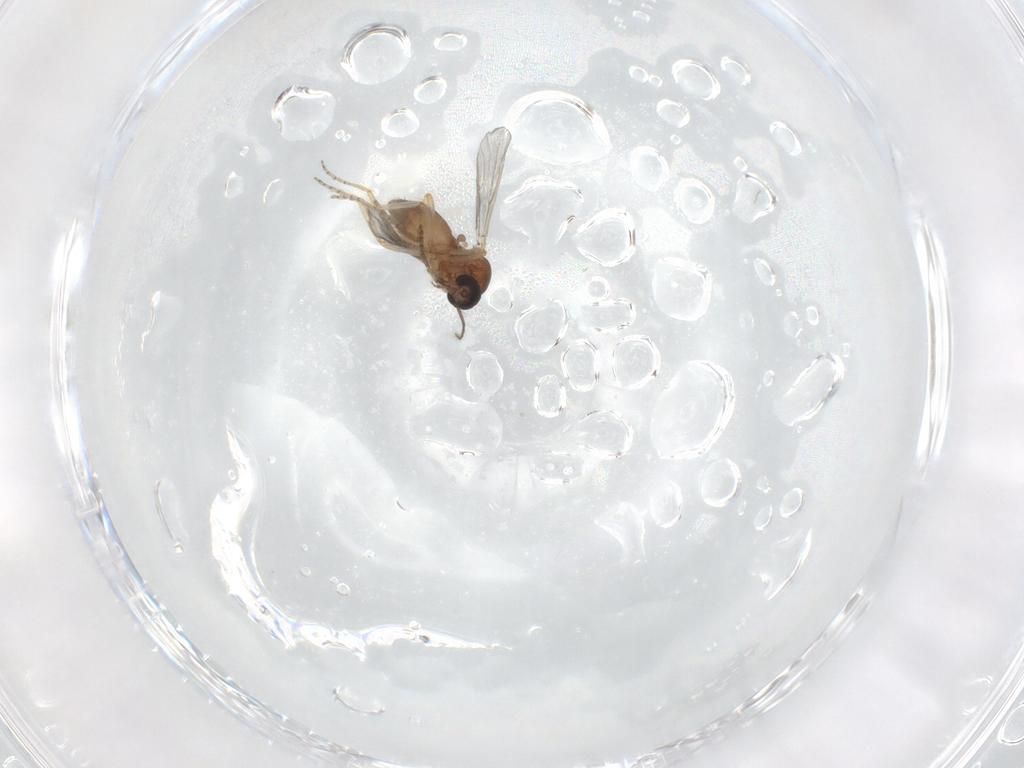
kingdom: Animalia
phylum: Arthropoda
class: Insecta
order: Diptera
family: Ceratopogonidae
